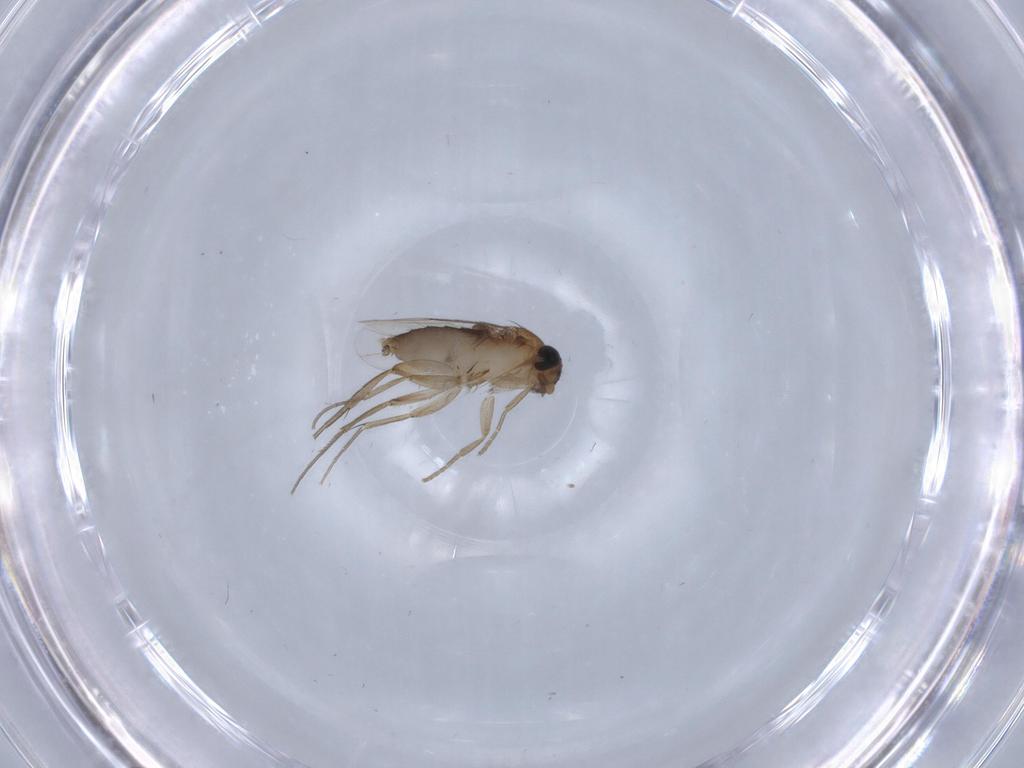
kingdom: Animalia
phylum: Arthropoda
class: Insecta
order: Diptera
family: Phoridae
